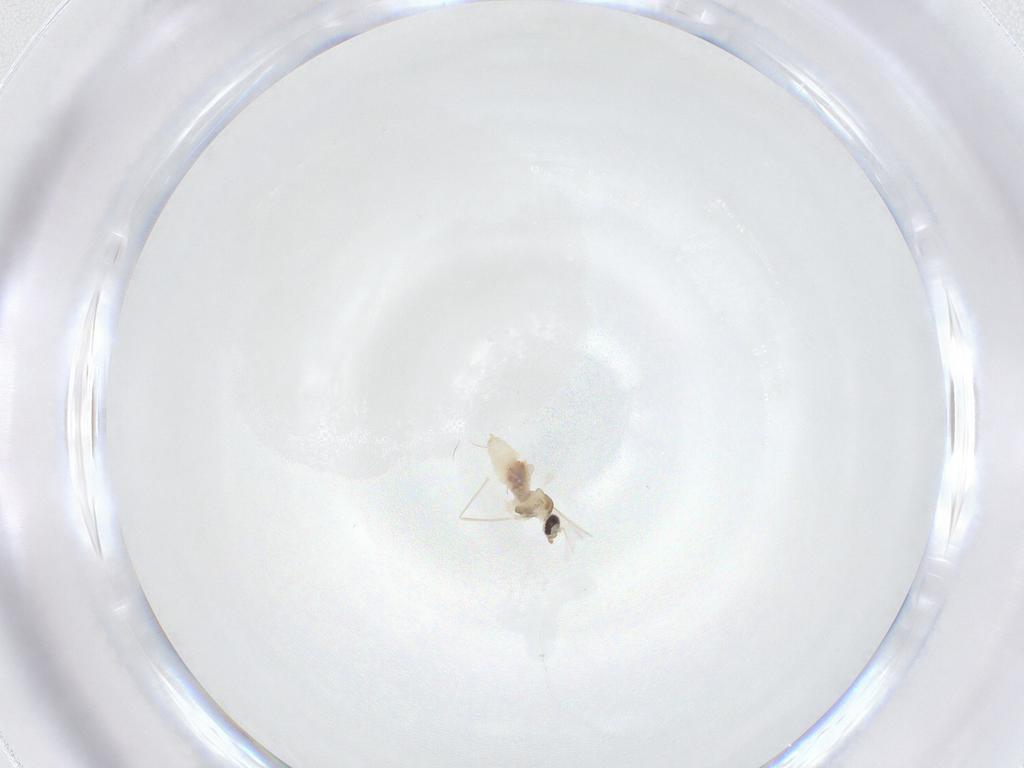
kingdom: Animalia
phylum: Arthropoda
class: Insecta
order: Diptera
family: Cecidomyiidae
